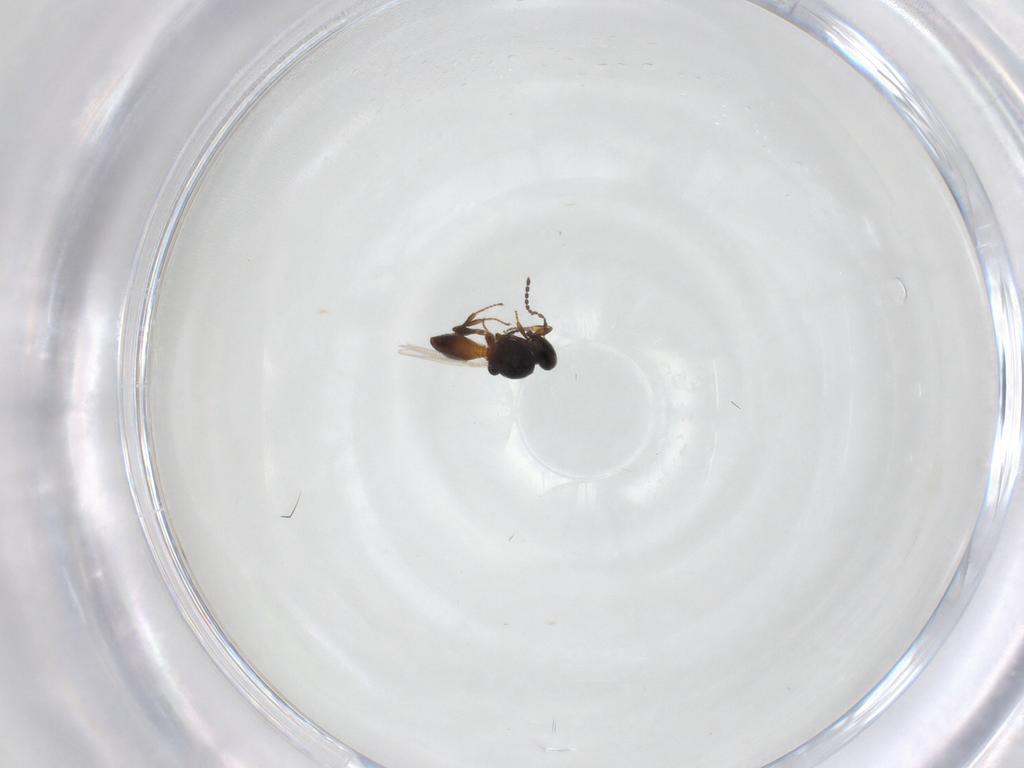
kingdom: Animalia
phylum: Arthropoda
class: Insecta
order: Hymenoptera
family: Platygastridae
